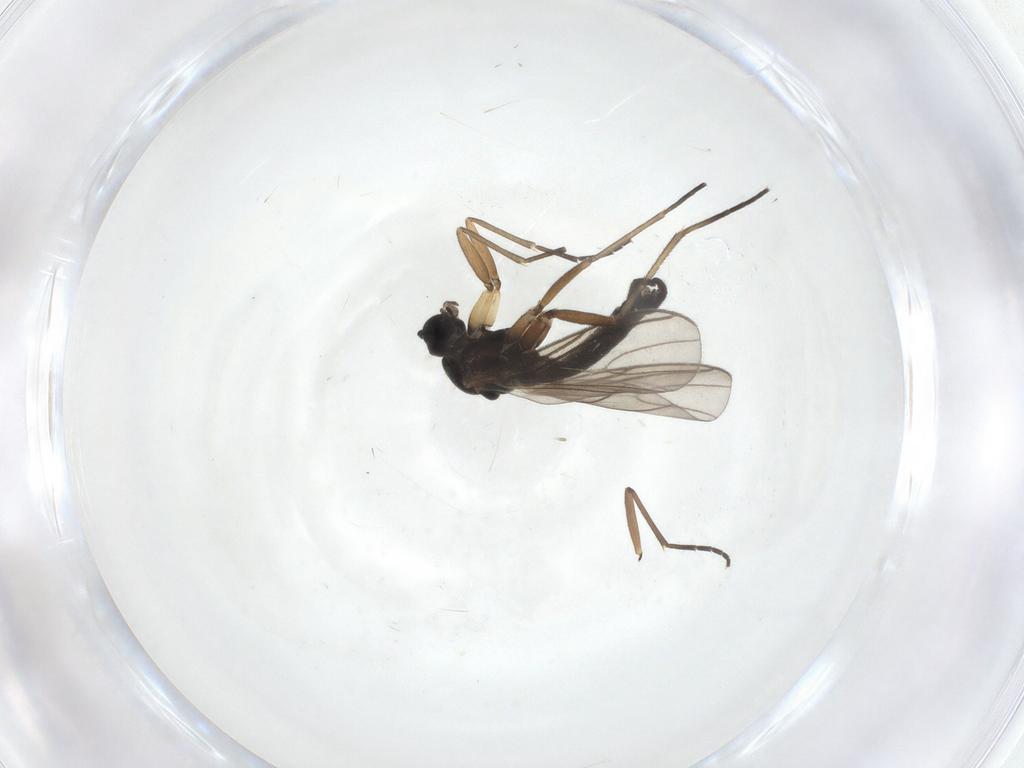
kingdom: Animalia
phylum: Arthropoda
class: Insecta
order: Diptera
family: Sciaridae
